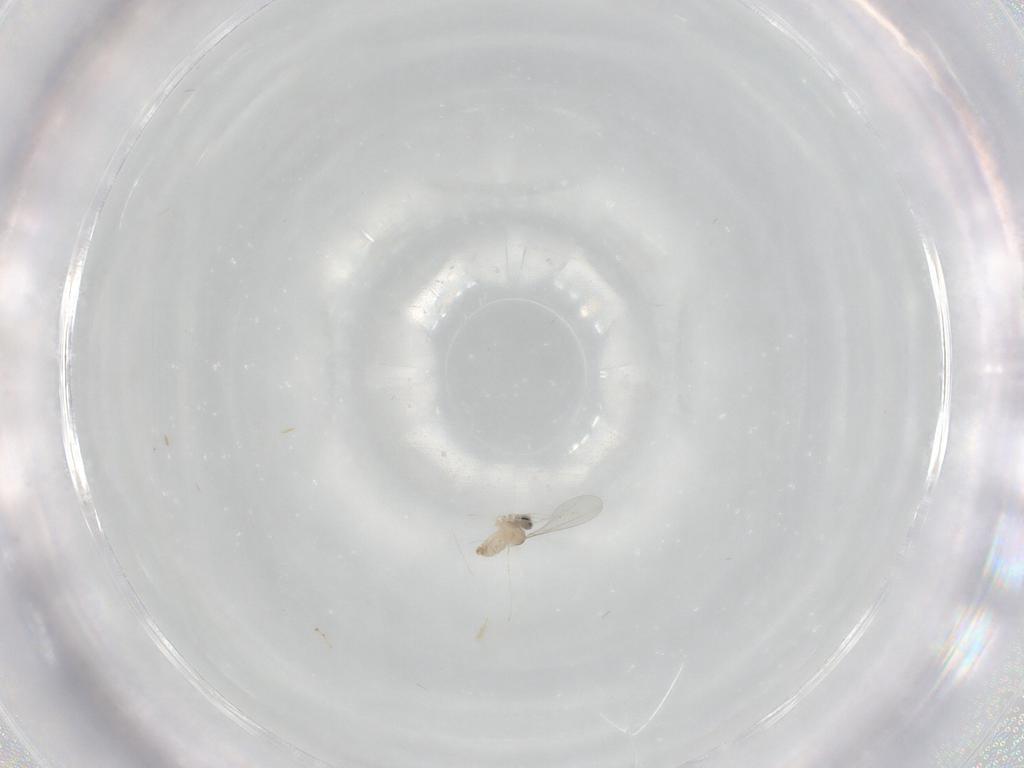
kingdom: Animalia
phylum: Arthropoda
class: Insecta
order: Diptera
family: Cecidomyiidae
